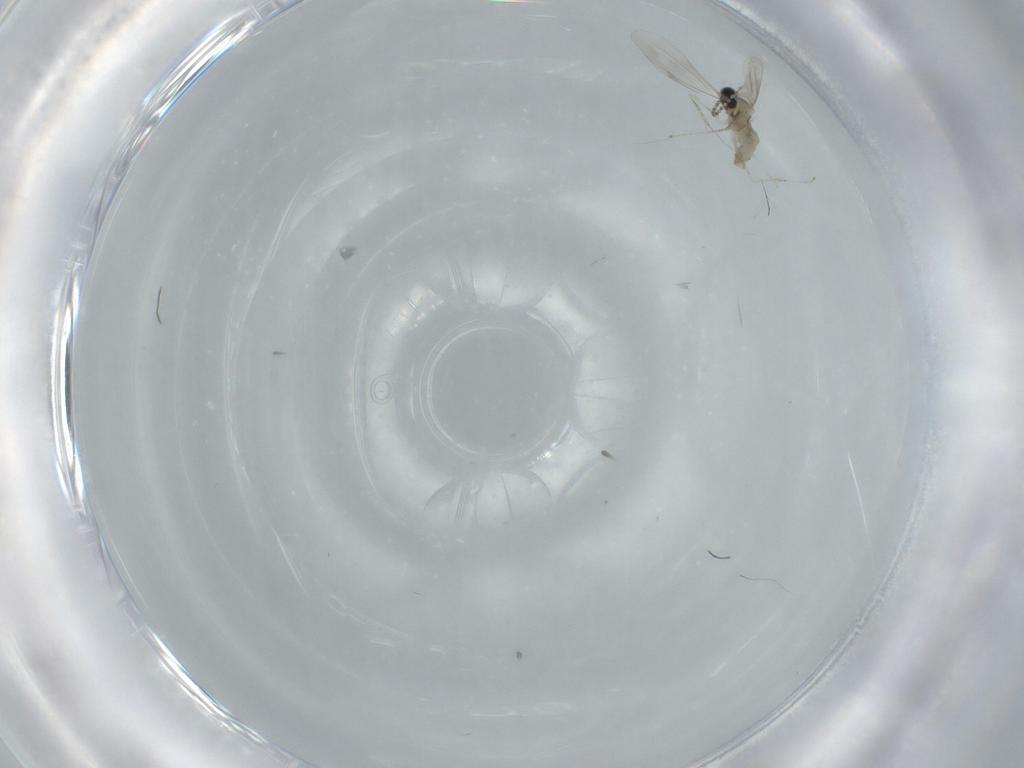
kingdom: Animalia
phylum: Arthropoda
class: Insecta
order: Diptera
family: Cecidomyiidae
